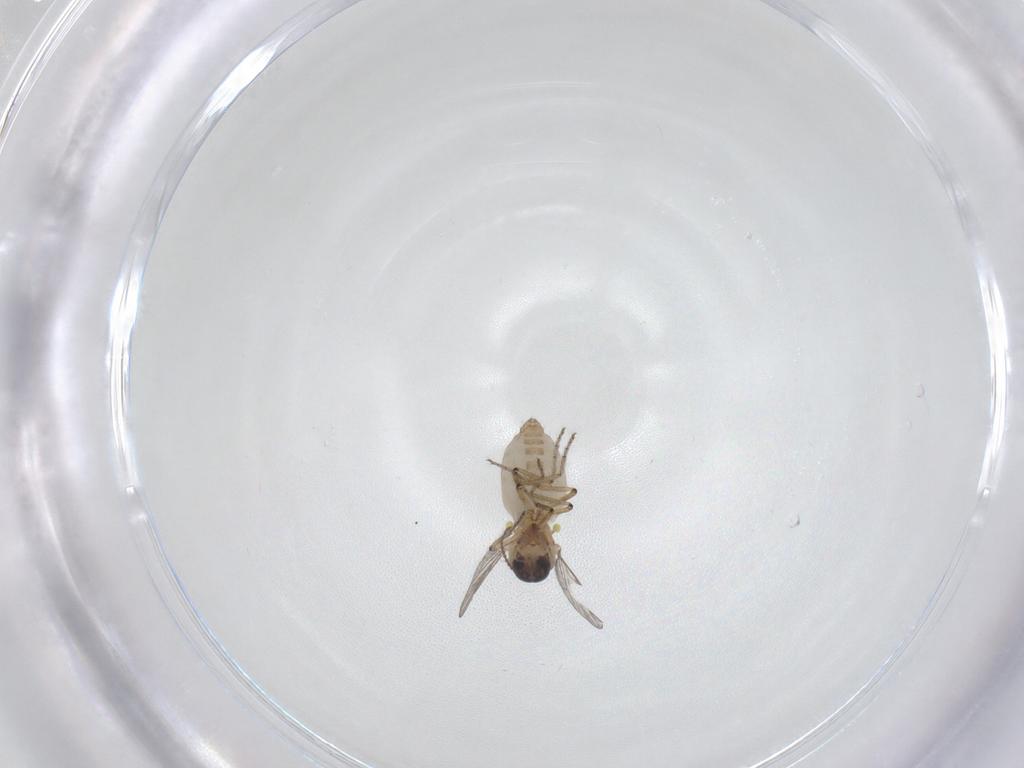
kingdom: Animalia
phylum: Arthropoda
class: Insecta
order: Diptera
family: Ceratopogonidae
